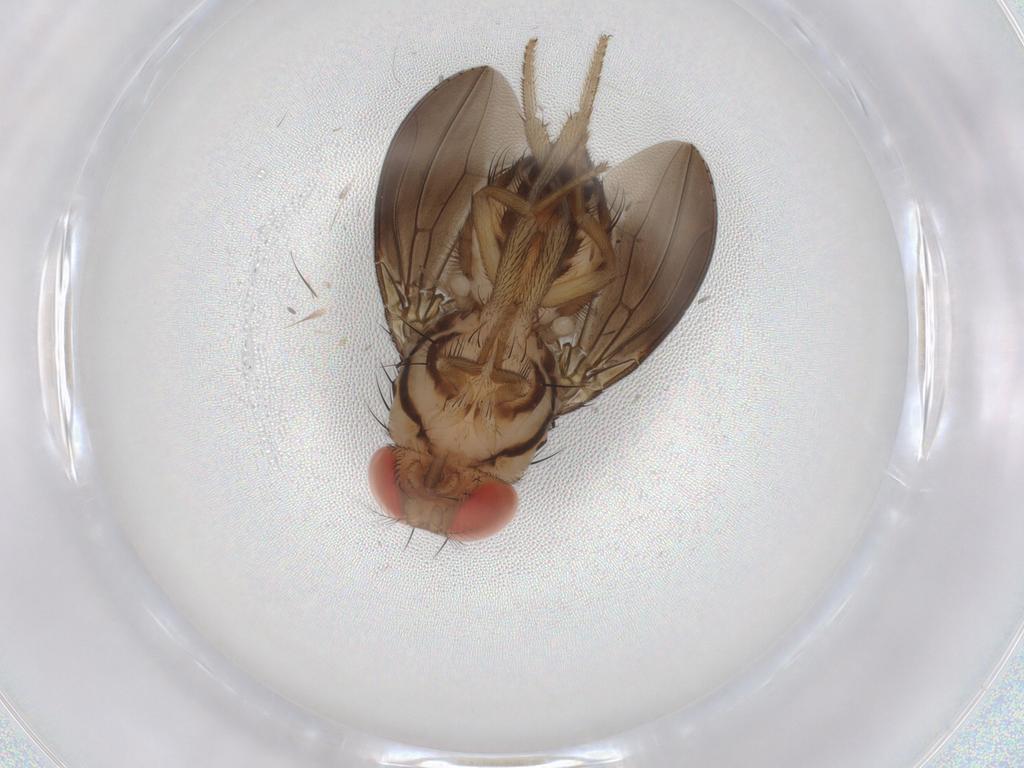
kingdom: Animalia
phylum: Arthropoda
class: Insecta
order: Diptera
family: Drosophilidae
